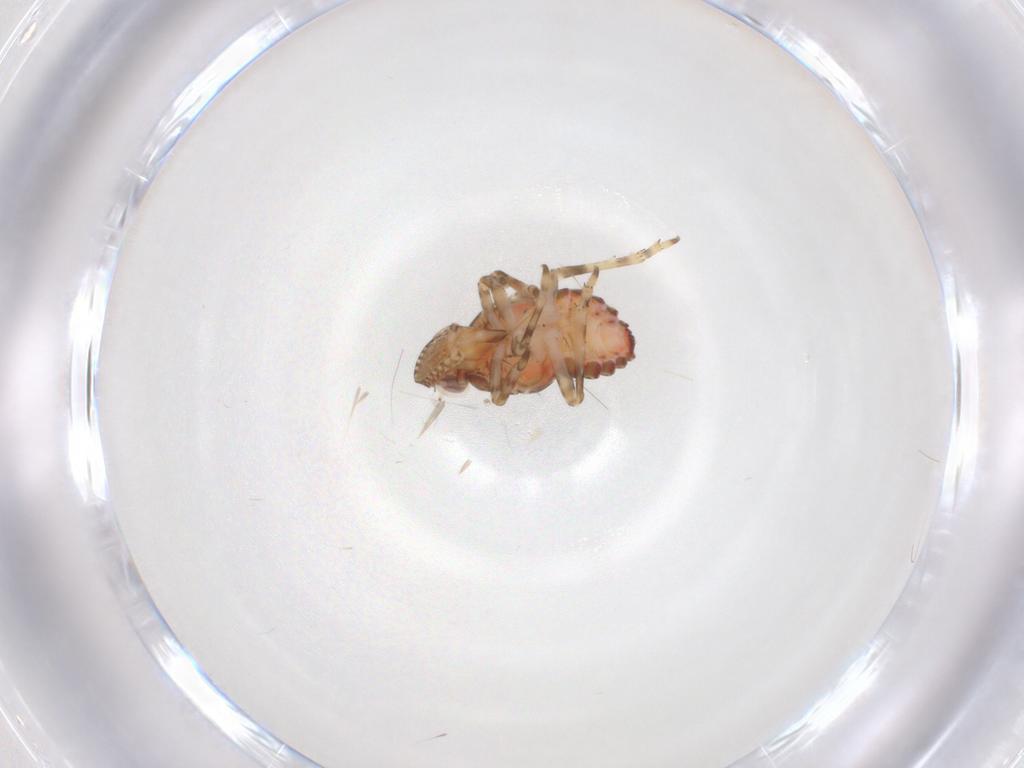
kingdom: Animalia
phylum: Arthropoda
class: Insecta
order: Hemiptera
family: Tropiduchidae
